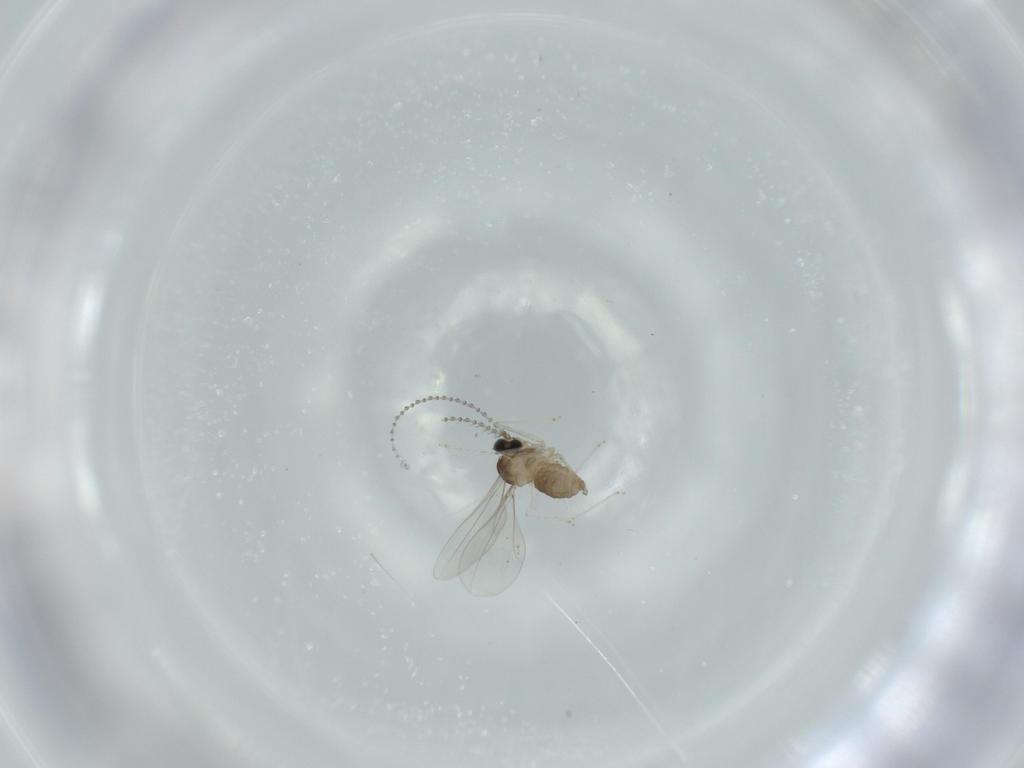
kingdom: Animalia
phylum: Arthropoda
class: Insecta
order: Diptera
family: Cecidomyiidae
